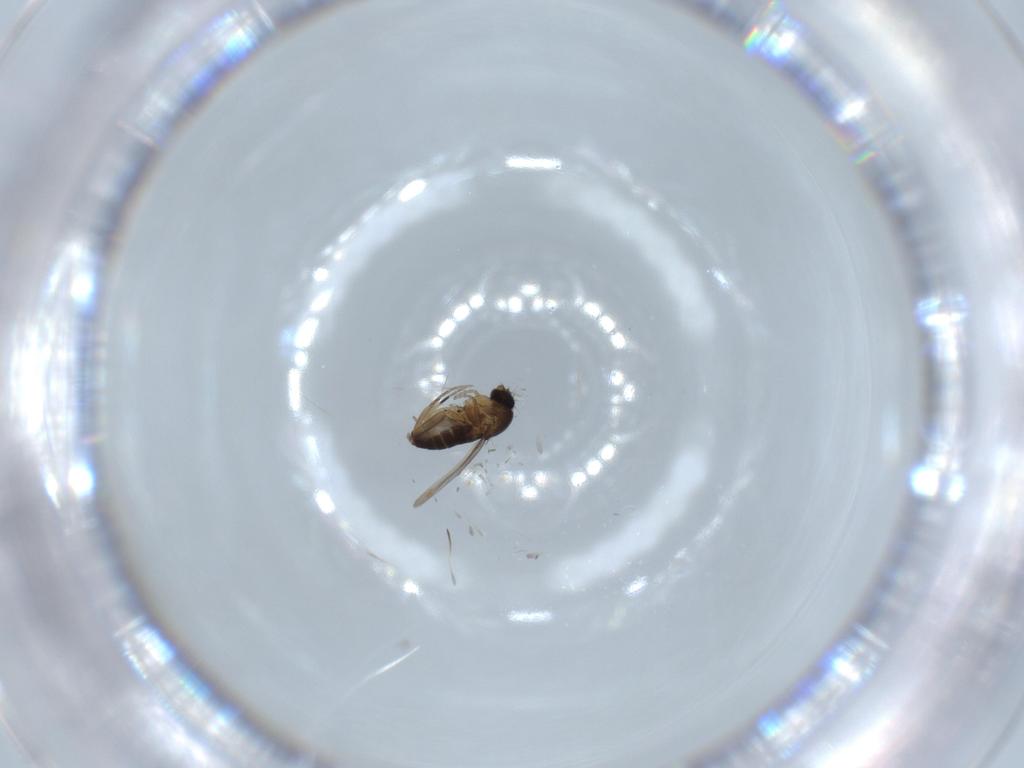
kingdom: Animalia
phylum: Arthropoda
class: Insecta
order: Diptera
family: Phoridae
